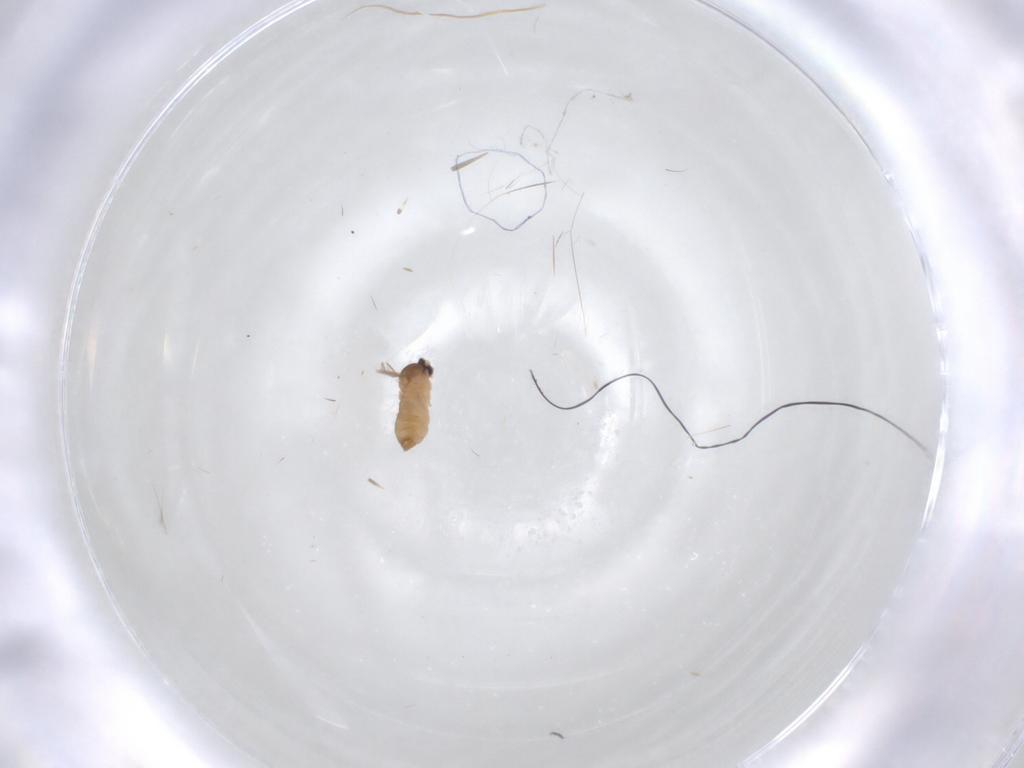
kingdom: Animalia
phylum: Arthropoda
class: Insecta
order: Diptera
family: Cecidomyiidae
